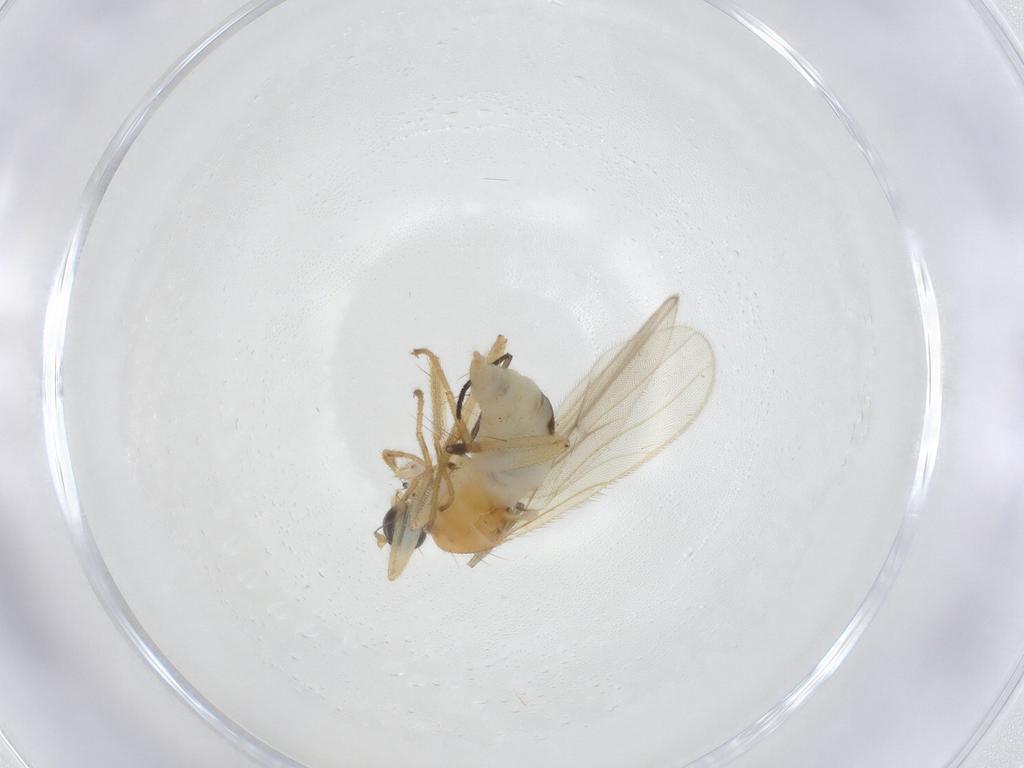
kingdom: Animalia
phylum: Arthropoda
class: Insecta
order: Diptera
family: Hybotidae
